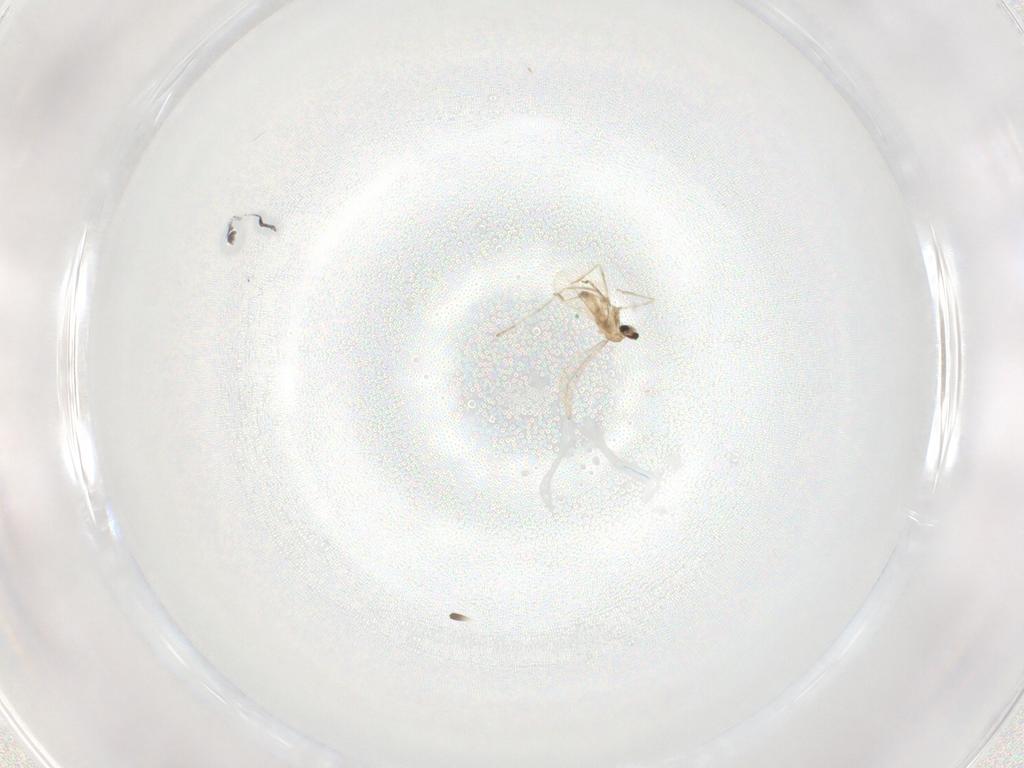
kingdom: Animalia
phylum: Arthropoda
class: Insecta
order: Diptera
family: Cecidomyiidae
